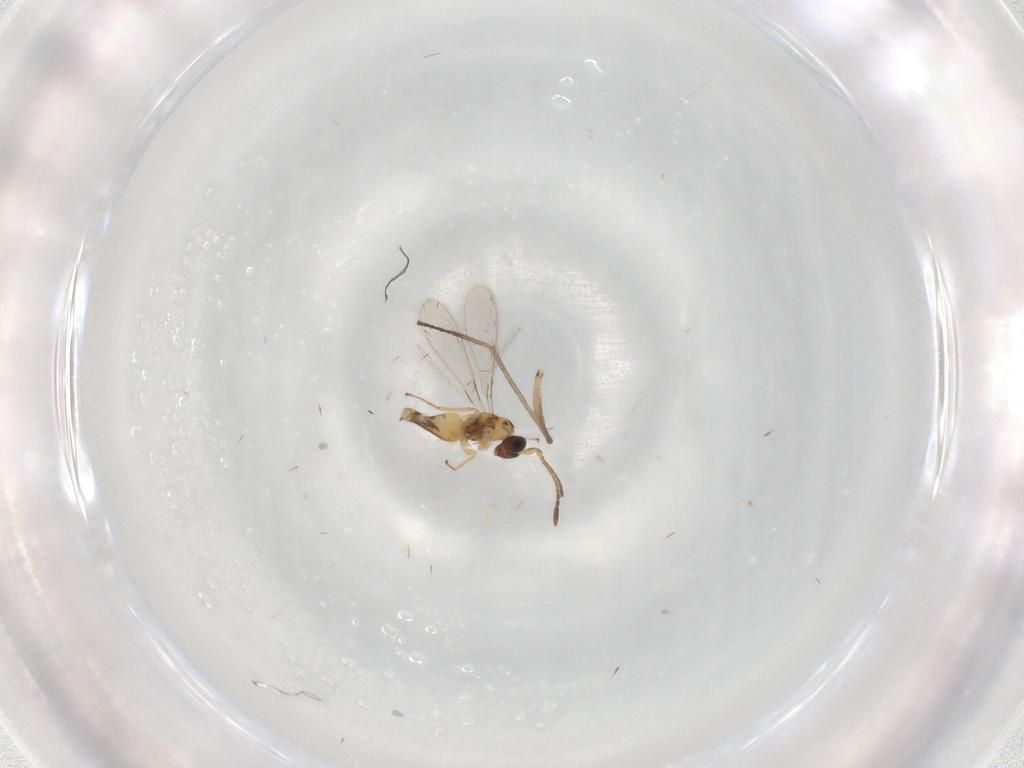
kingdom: Animalia
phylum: Arthropoda
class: Insecta
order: Hymenoptera
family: Mymaridae
